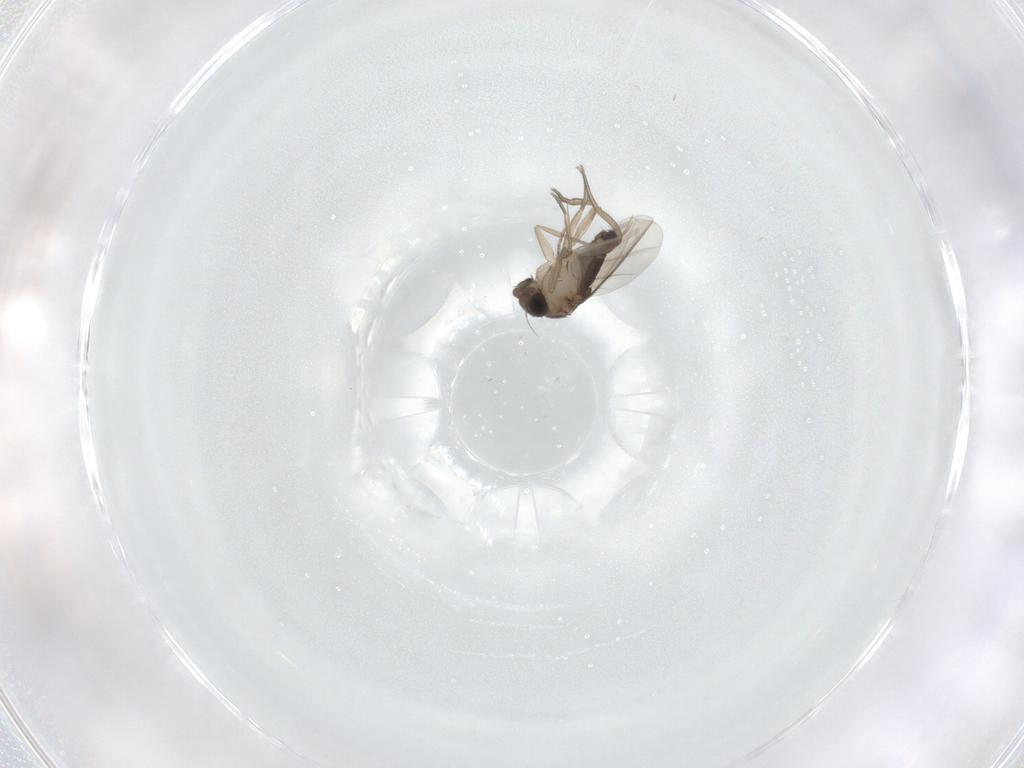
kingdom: Animalia
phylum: Arthropoda
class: Insecta
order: Diptera
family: Phoridae
